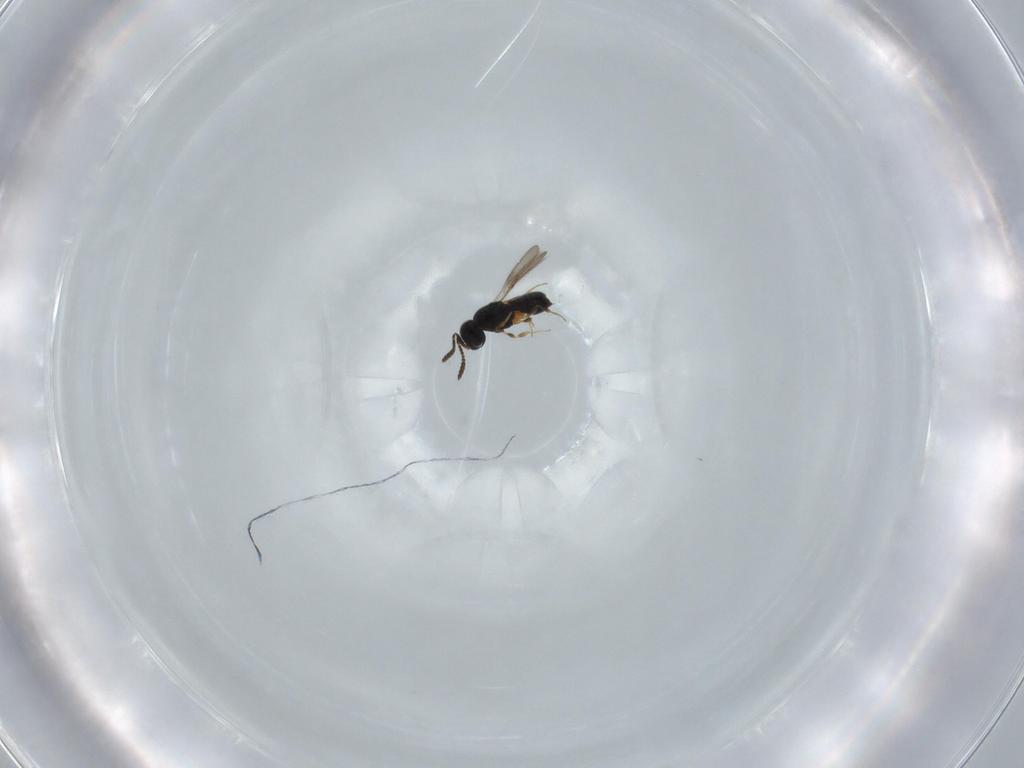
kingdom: Animalia
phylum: Arthropoda
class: Insecta
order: Hymenoptera
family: Scelionidae
